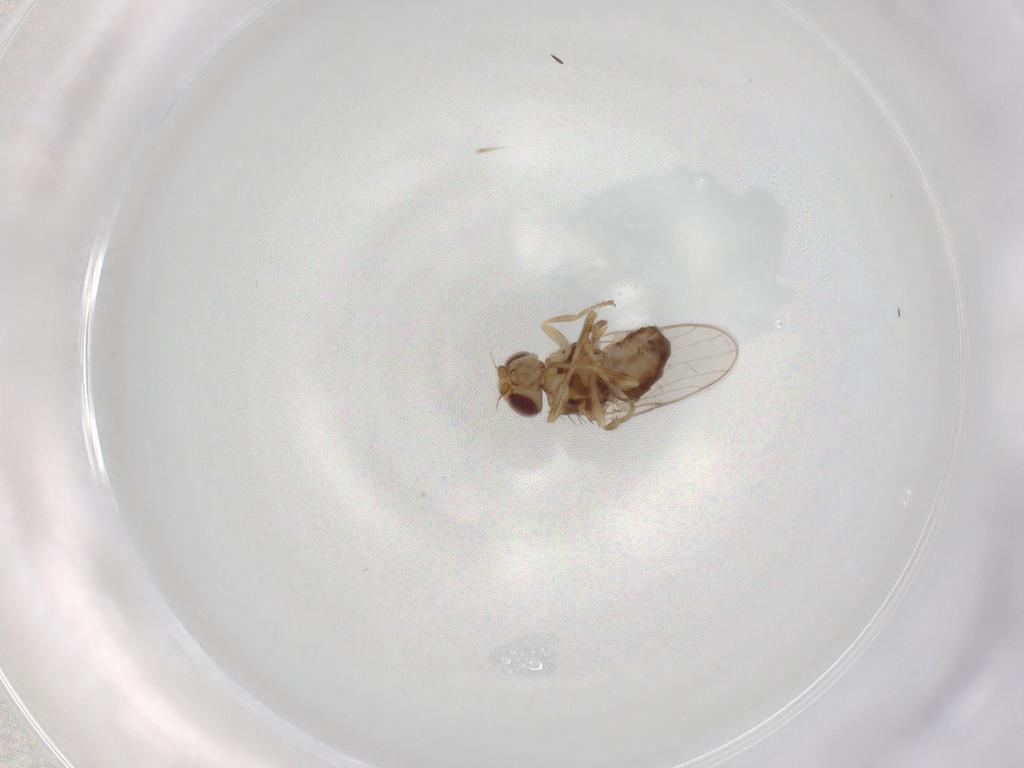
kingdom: Animalia
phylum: Arthropoda
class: Insecta
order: Diptera
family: Chloropidae
